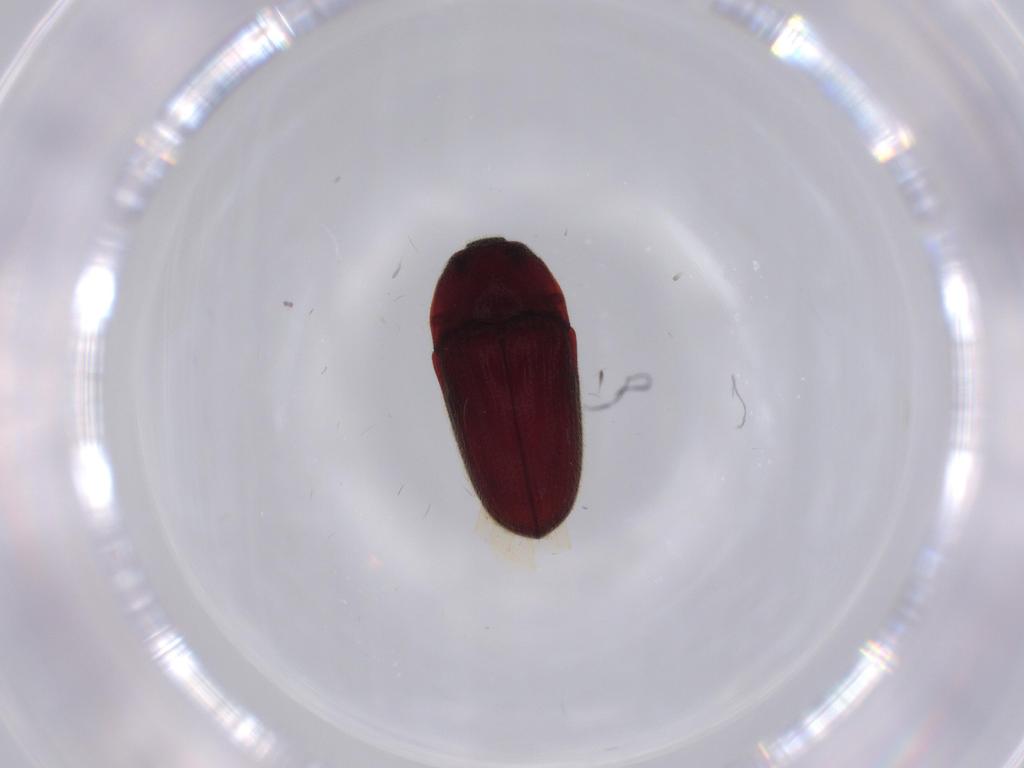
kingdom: Animalia
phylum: Arthropoda
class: Insecta
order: Coleoptera
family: Throscidae
